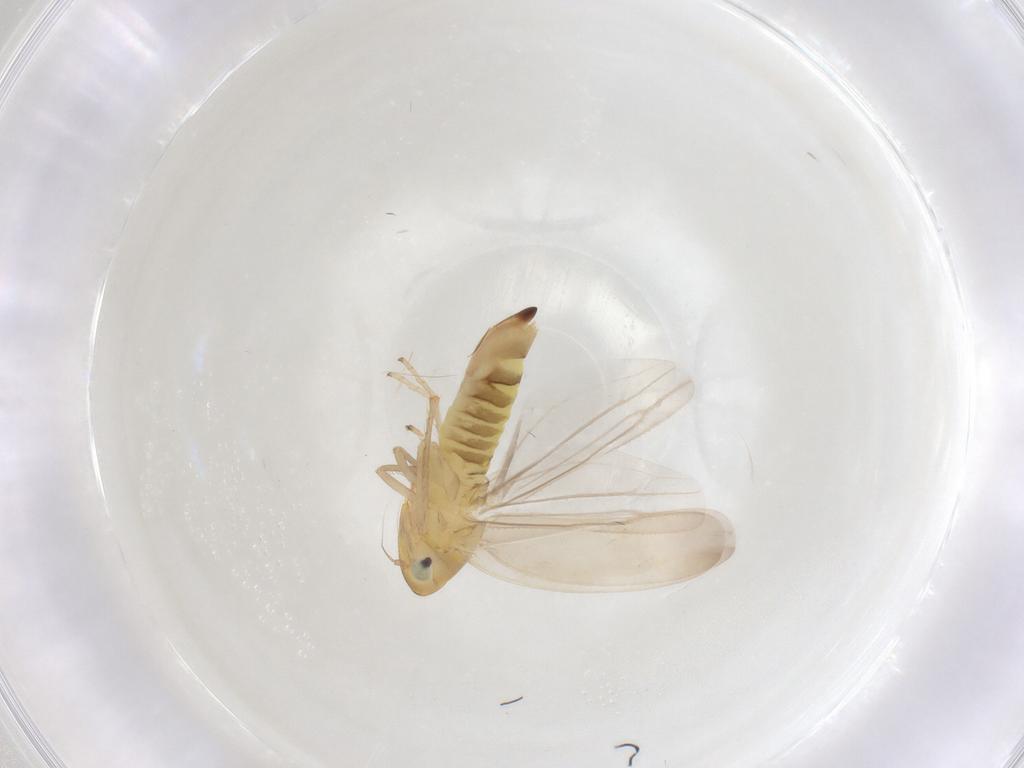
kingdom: Animalia
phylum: Arthropoda
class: Insecta
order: Hemiptera
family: Cicadellidae
